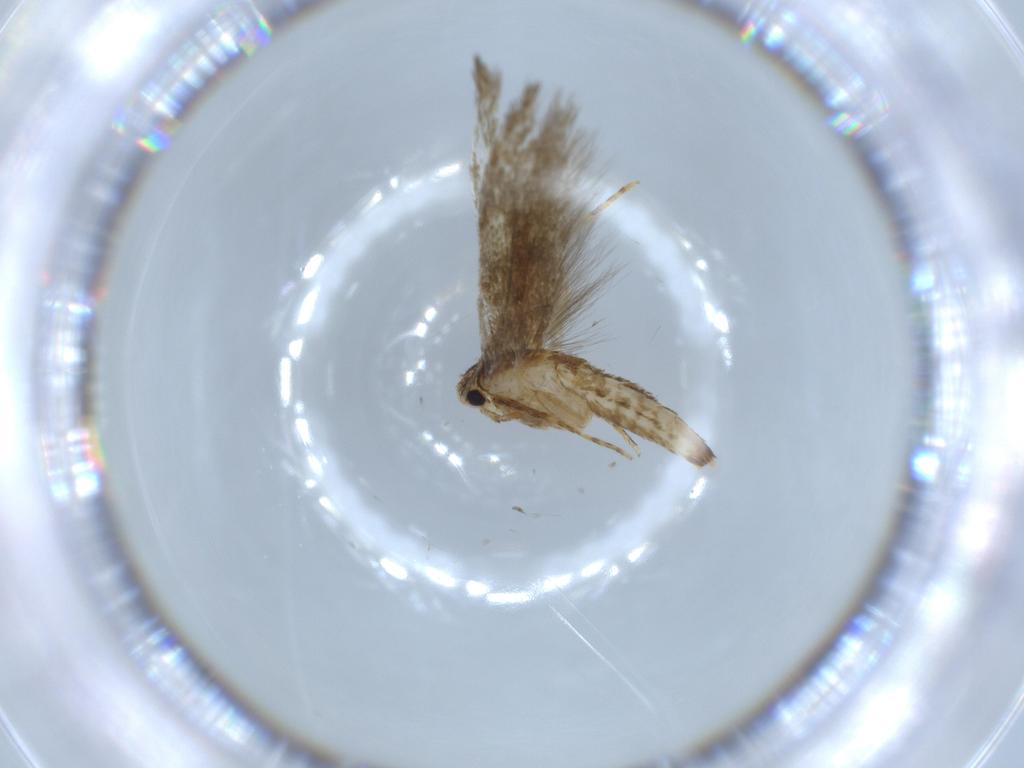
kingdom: Animalia
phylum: Arthropoda
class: Insecta
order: Lepidoptera
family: Tineidae
